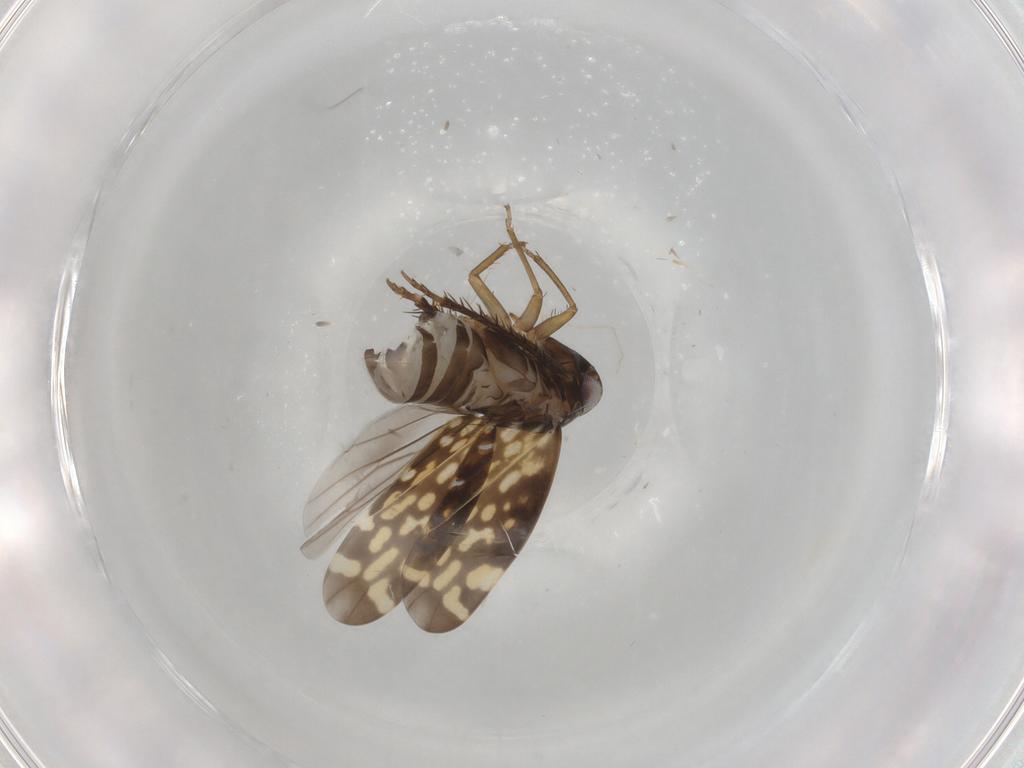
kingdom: Animalia
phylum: Arthropoda
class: Insecta
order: Hemiptera
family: Cicadellidae
